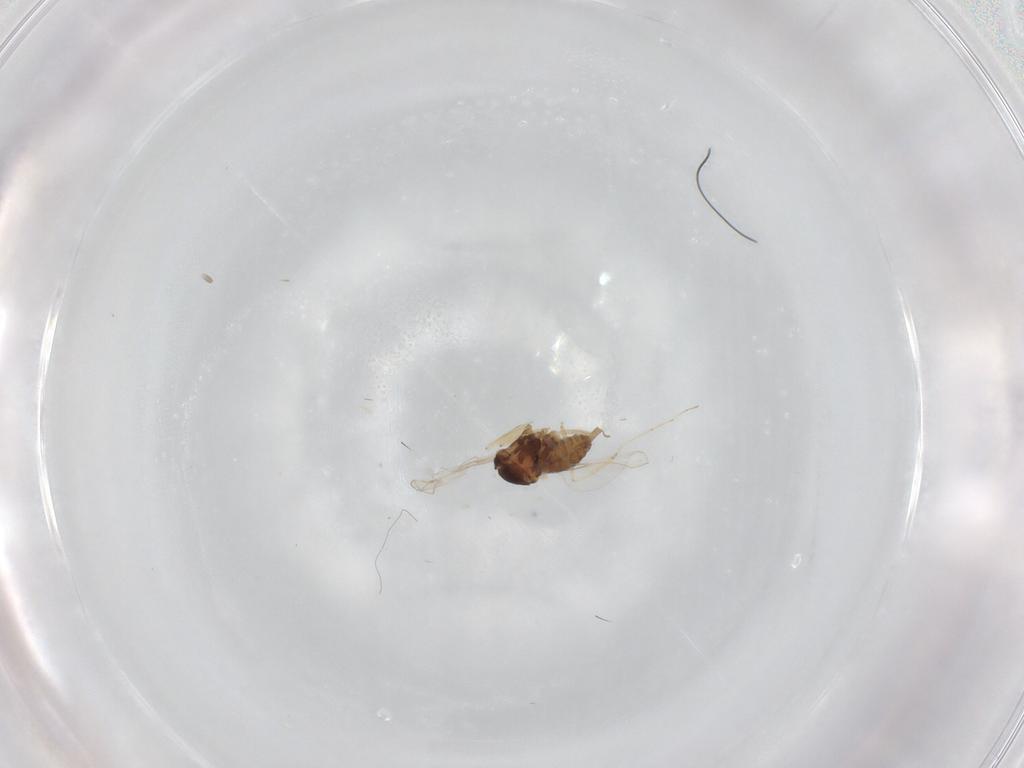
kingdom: Animalia
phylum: Arthropoda
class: Insecta
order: Diptera
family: Cecidomyiidae
